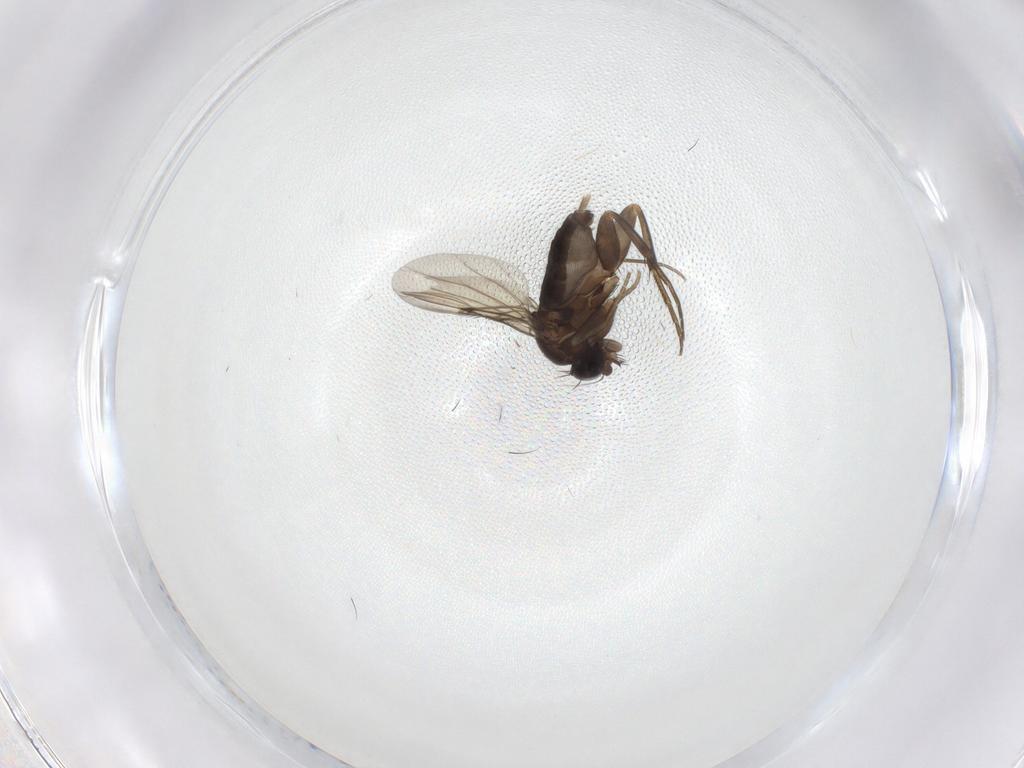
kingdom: Animalia
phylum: Arthropoda
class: Insecta
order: Diptera
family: Phoridae
